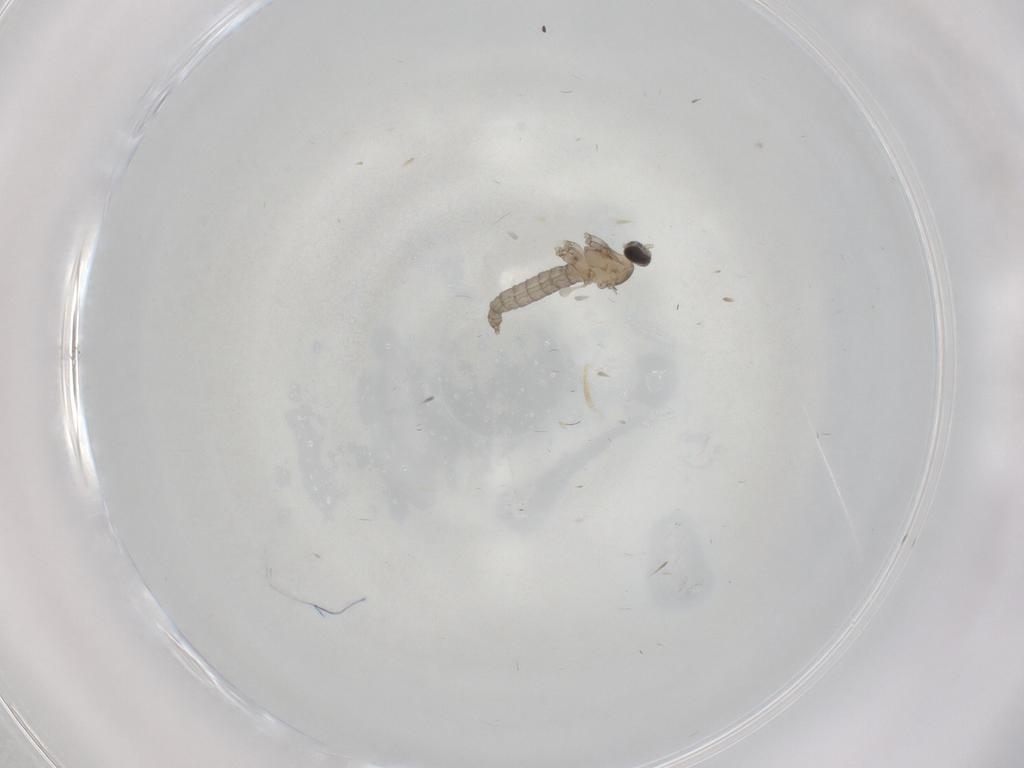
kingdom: Animalia
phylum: Arthropoda
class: Insecta
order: Diptera
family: Cecidomyiidae
